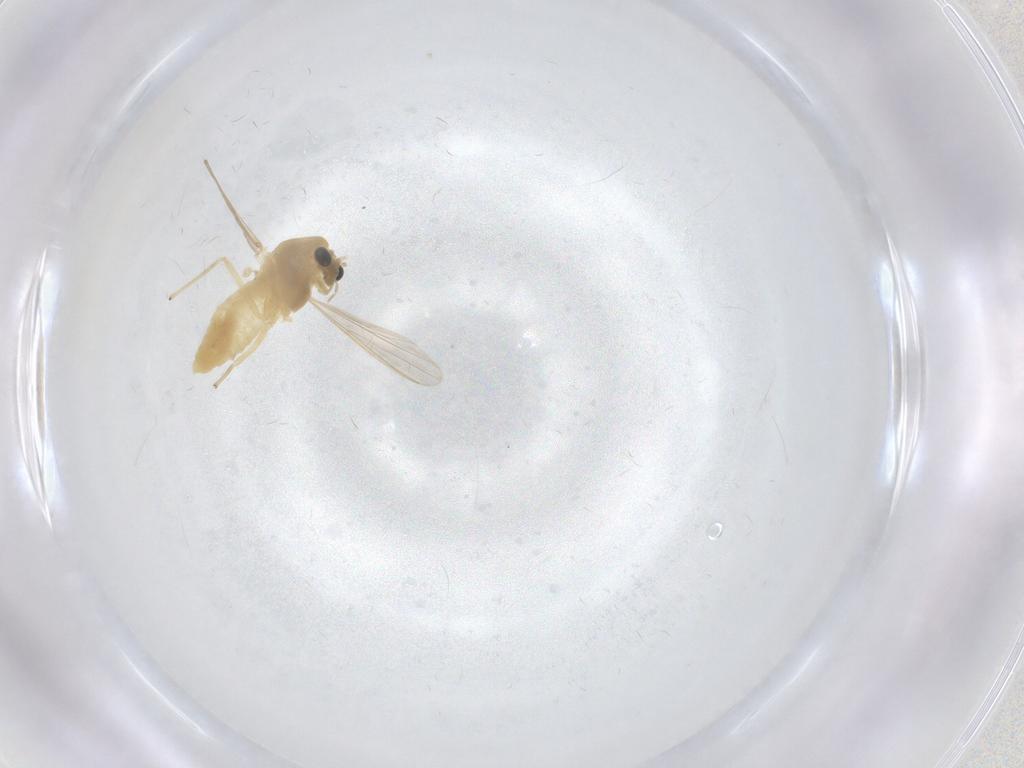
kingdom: Animalia
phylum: Arthropoda
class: Insecta
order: Diptera
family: Chironomidae
